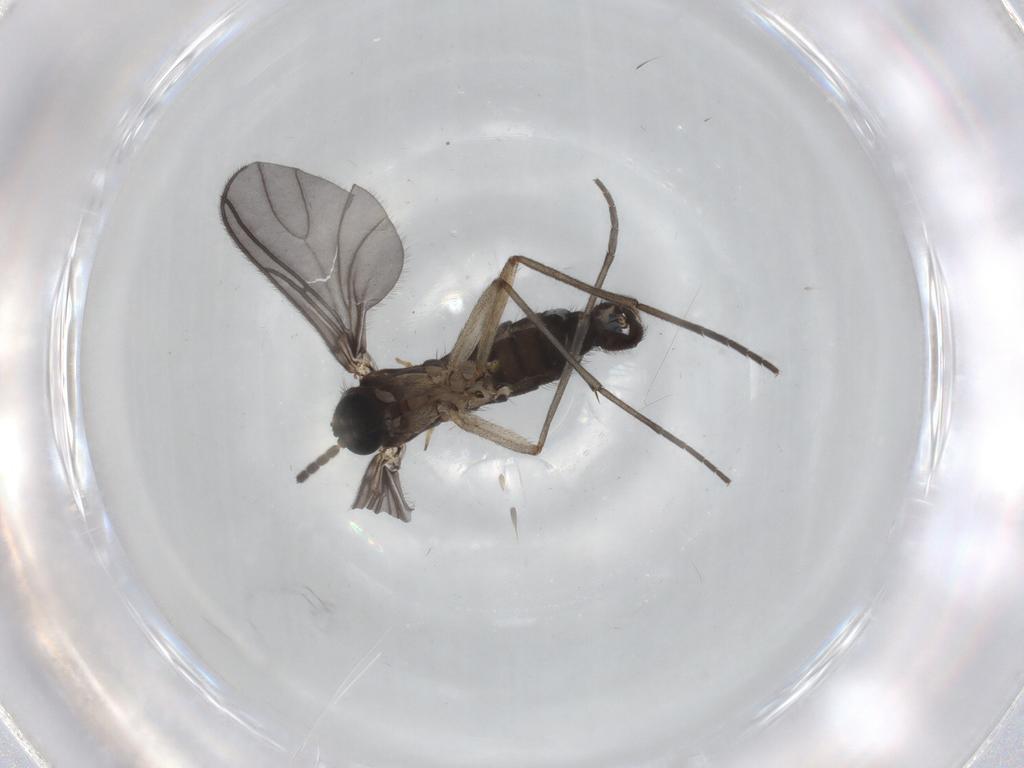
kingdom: Animalia
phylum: Arthropoda
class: Insecta
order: Diptera
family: Sciaridae
